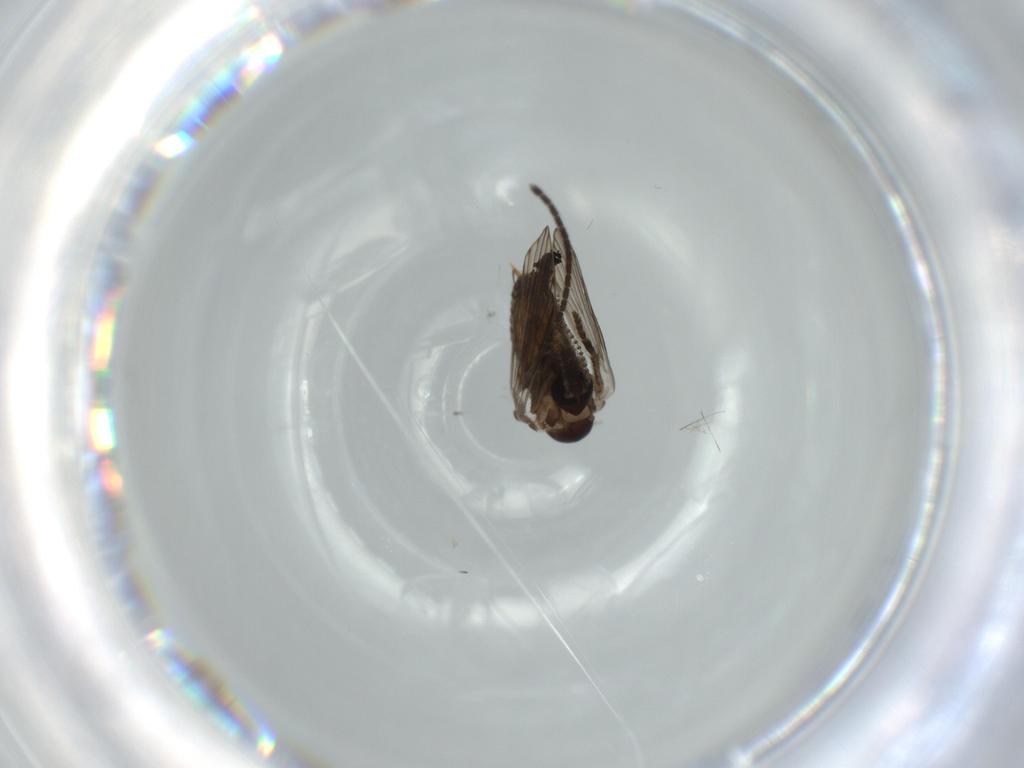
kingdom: Animalia
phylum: Arthropoda
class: Insecta
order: Diptera
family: Psychodidae
